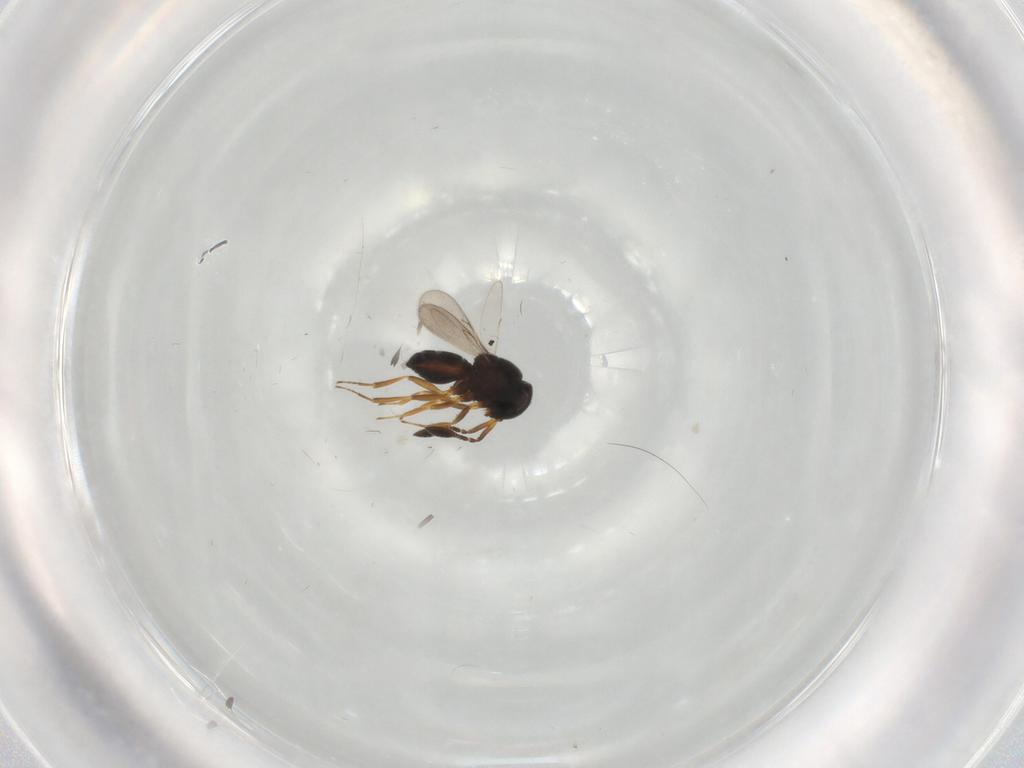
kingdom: Animalia
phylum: Arthropoda
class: Insecta
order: Hymenoptera
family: Scelionidae
